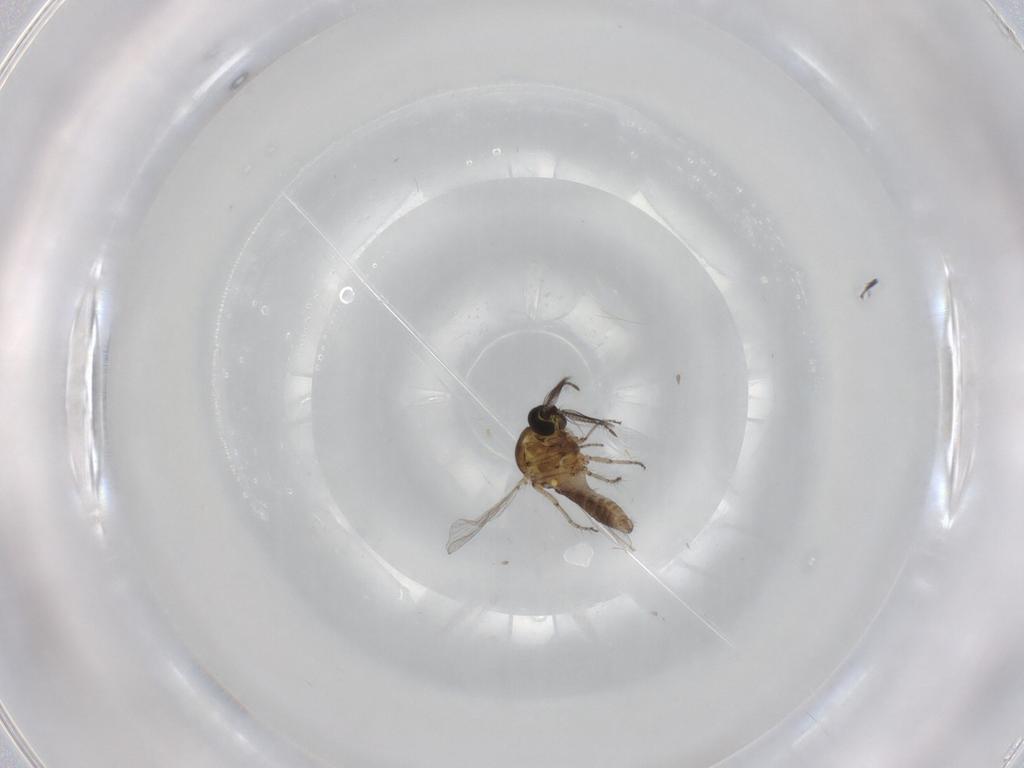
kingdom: Animalia
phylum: Arthropoda
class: Insecta
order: Diptera
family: Ceratopogonidae
